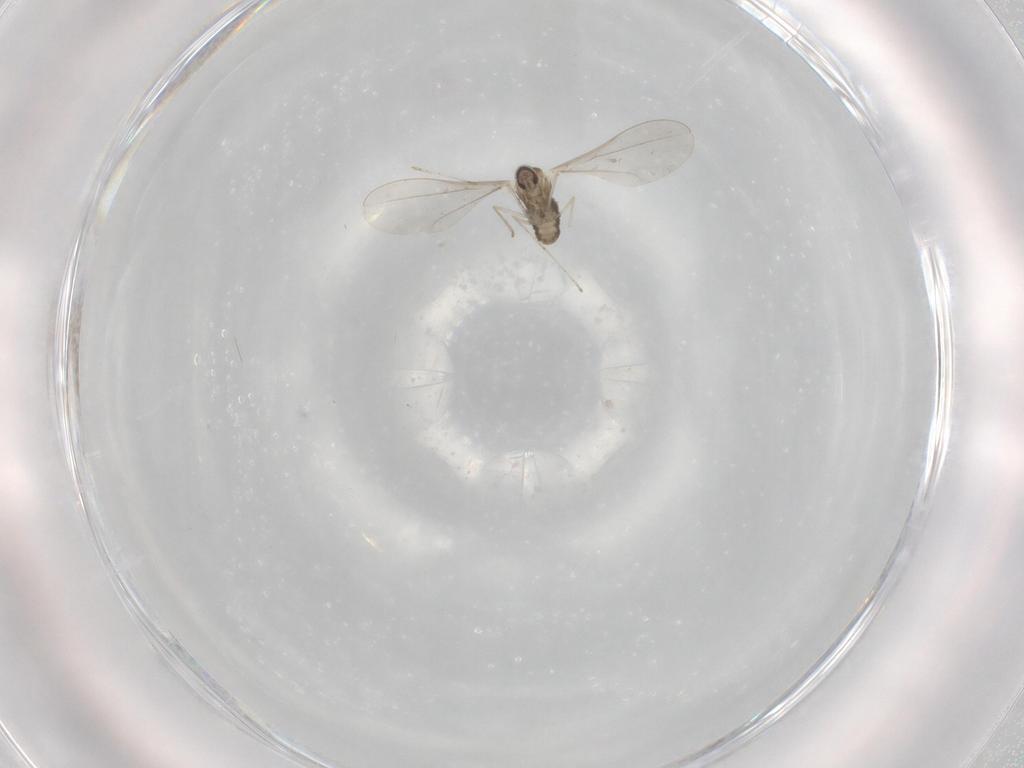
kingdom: Animalia
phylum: Arthropoda
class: Insecta
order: Diptera
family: Cecidomyiidae
